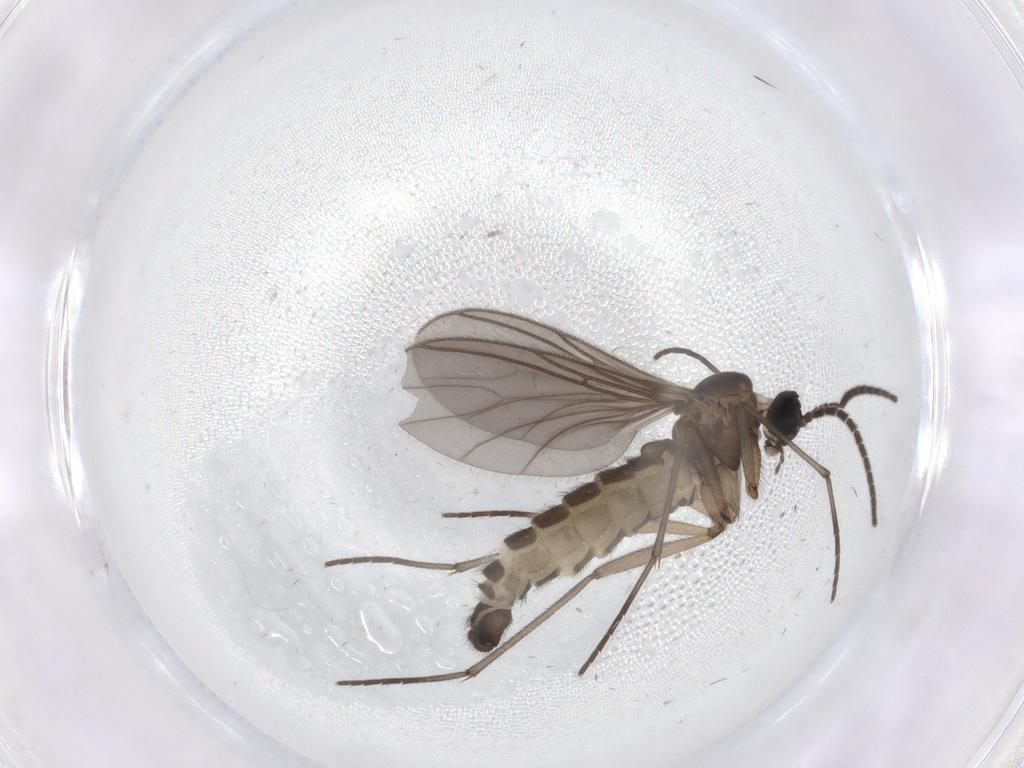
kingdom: Animalia
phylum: Arthropoda
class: Insecta
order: Diptera
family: Sciaridae
